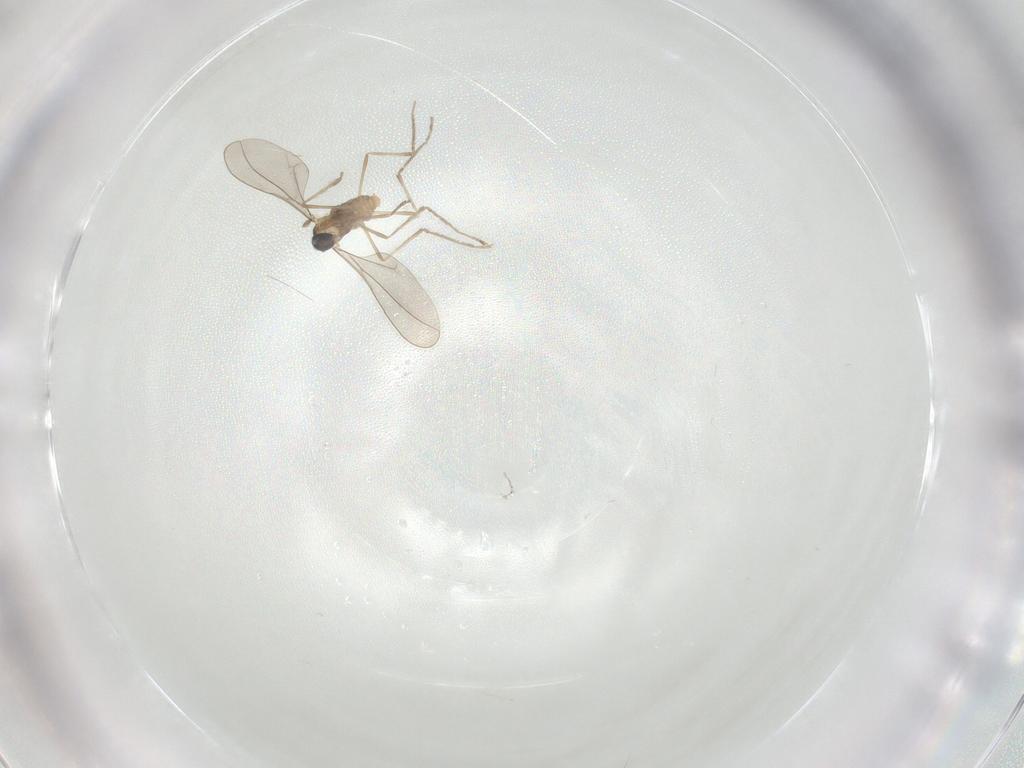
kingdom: Animalia
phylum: Arthropoda
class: Insecta
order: Diptera
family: Cecidomyiidae
